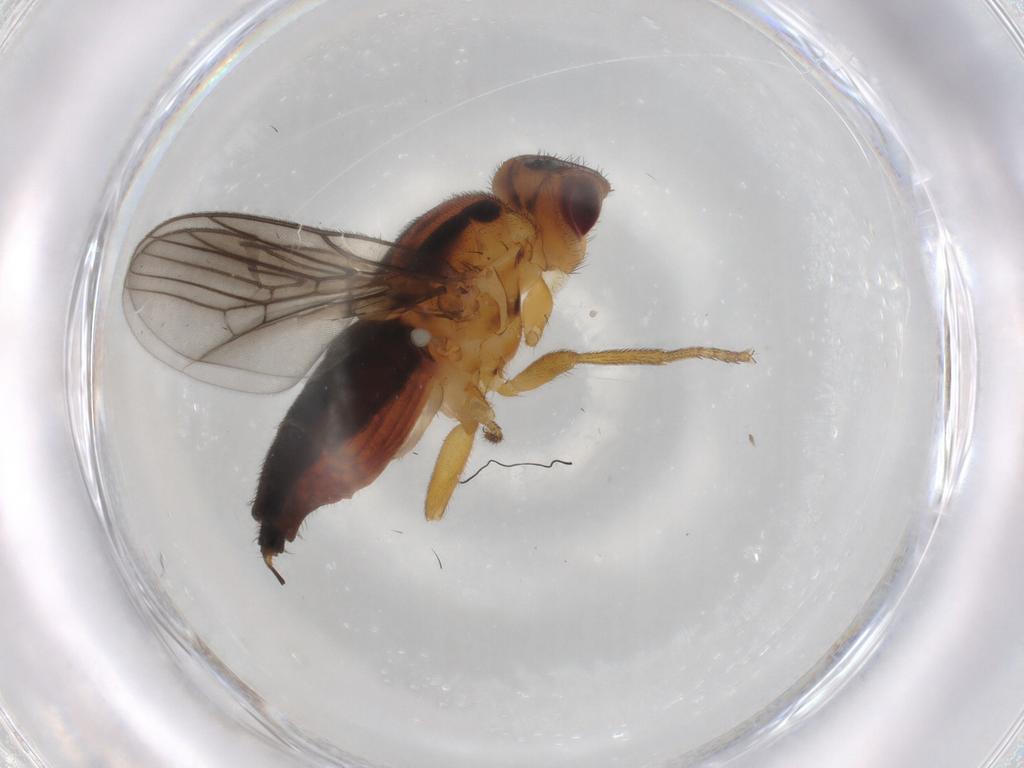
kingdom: Animalia
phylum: Arthropoda
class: Insecta
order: Diptera
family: Chloropidae
